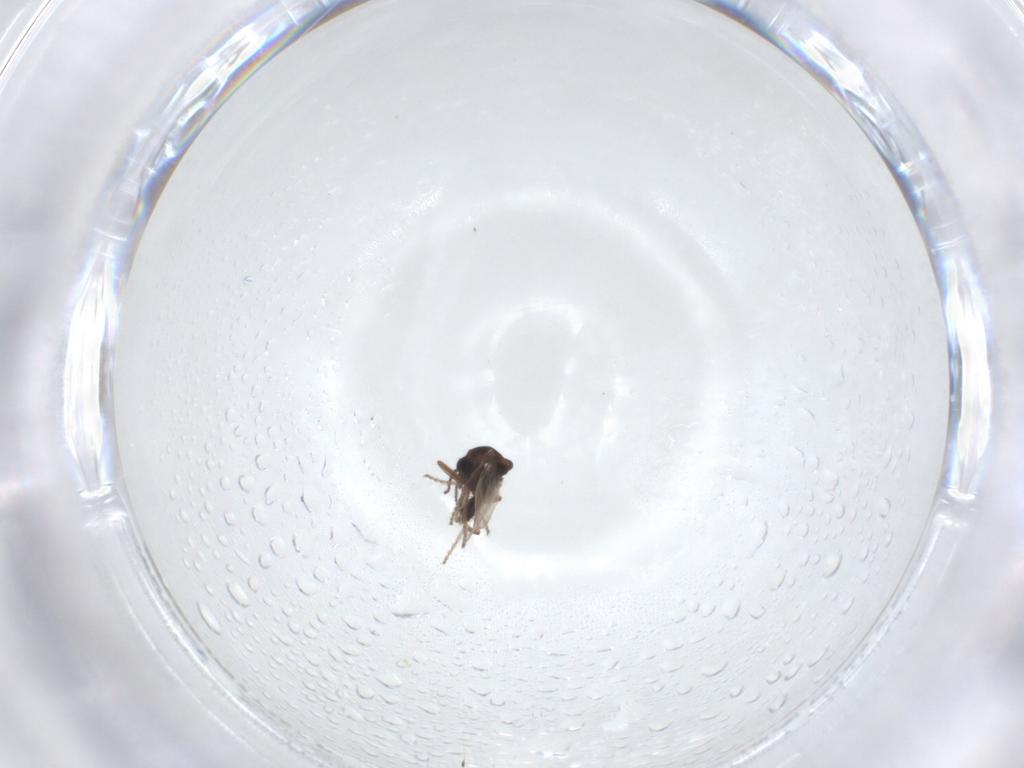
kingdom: Animalia
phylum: Arthropoda
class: Insecta
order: Diptera
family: Ceratopogonidae
